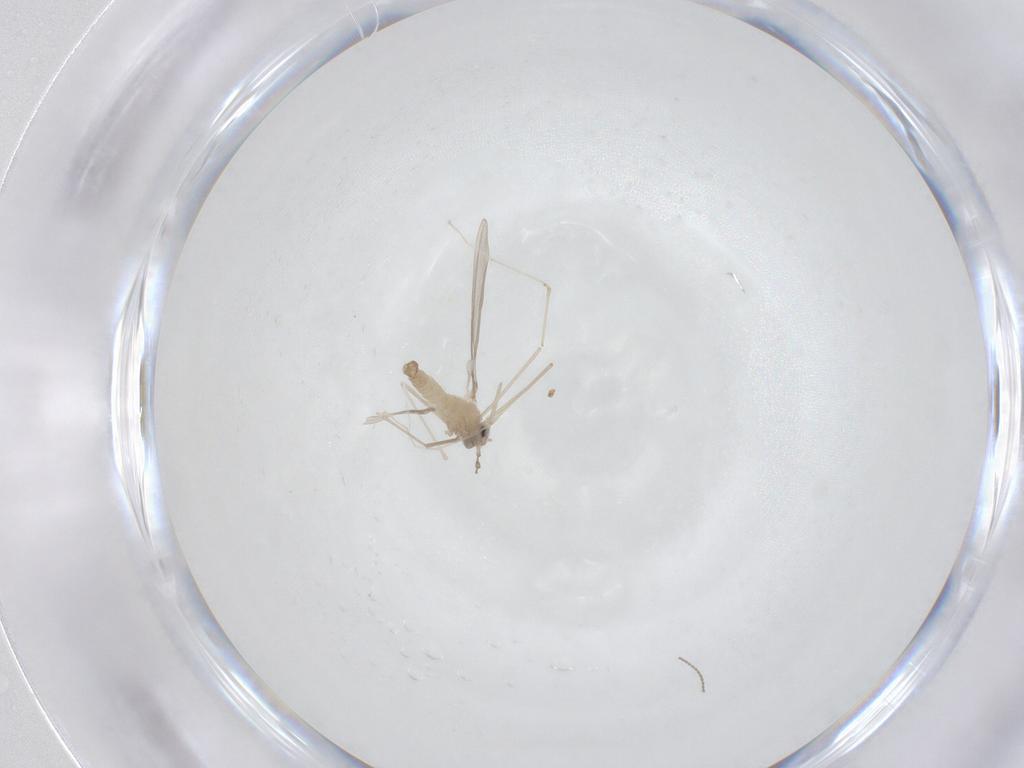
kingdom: Animalia
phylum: Arthropoda
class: Insecta
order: Diptera
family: Cecidomyiidae
